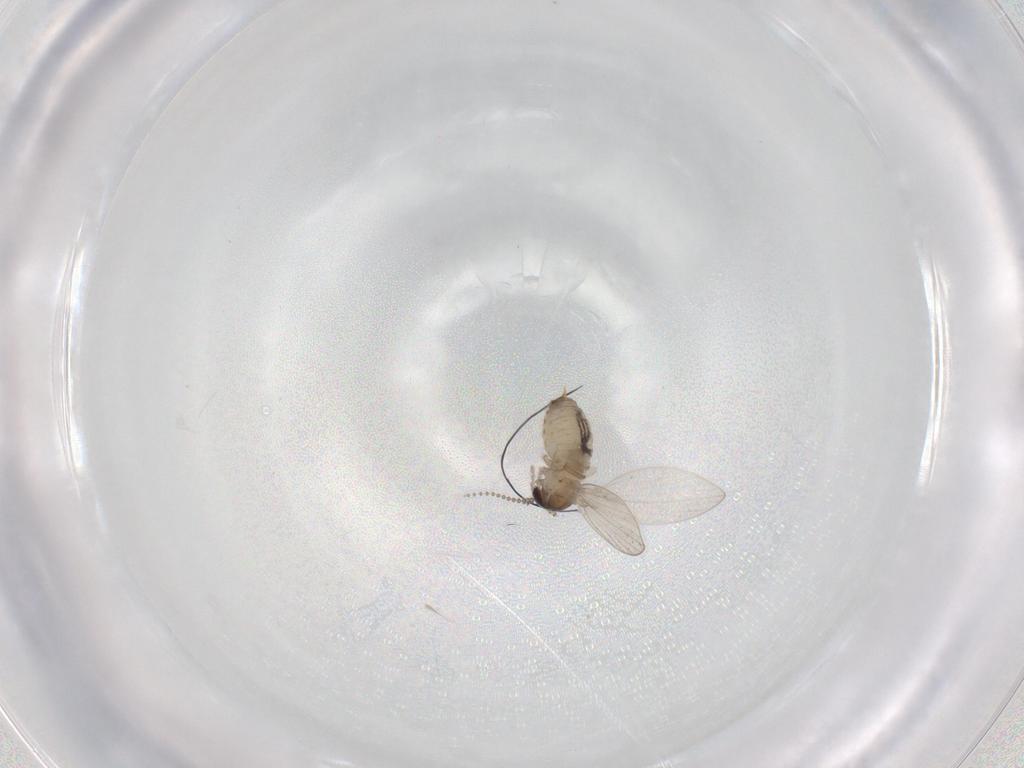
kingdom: Animalia
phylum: Arthropoda
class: Insecta
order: Diptera
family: Psychodidae
